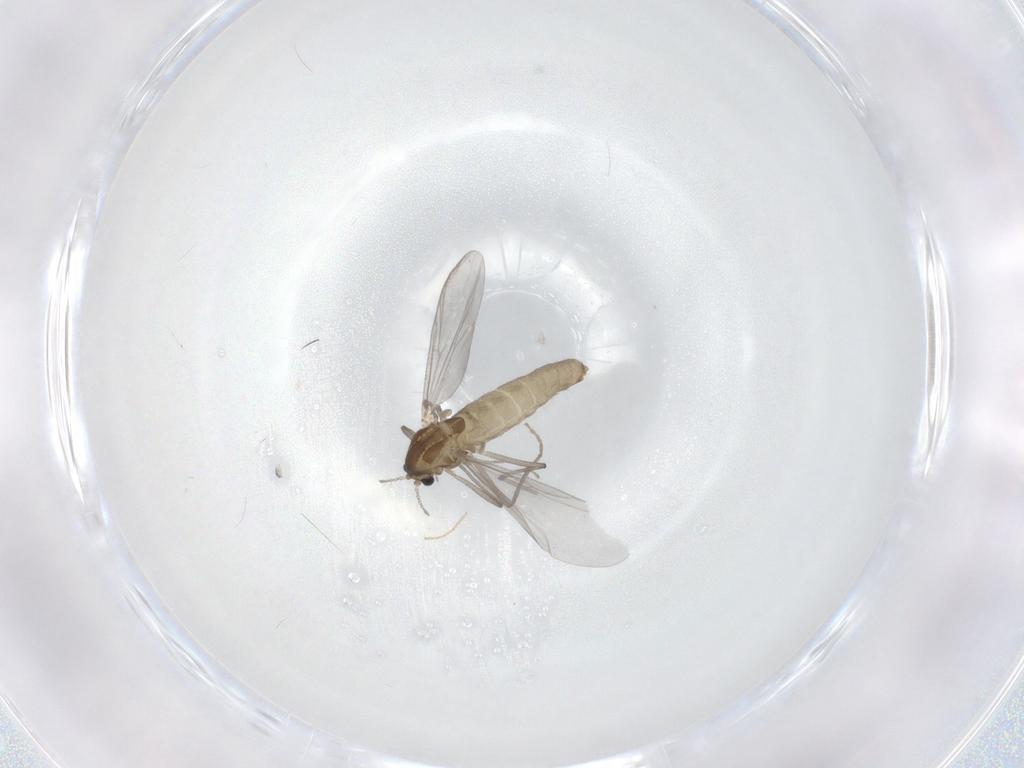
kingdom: Animalia
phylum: Arthropoda
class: Insecta
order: Diptera
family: Chironomidae
